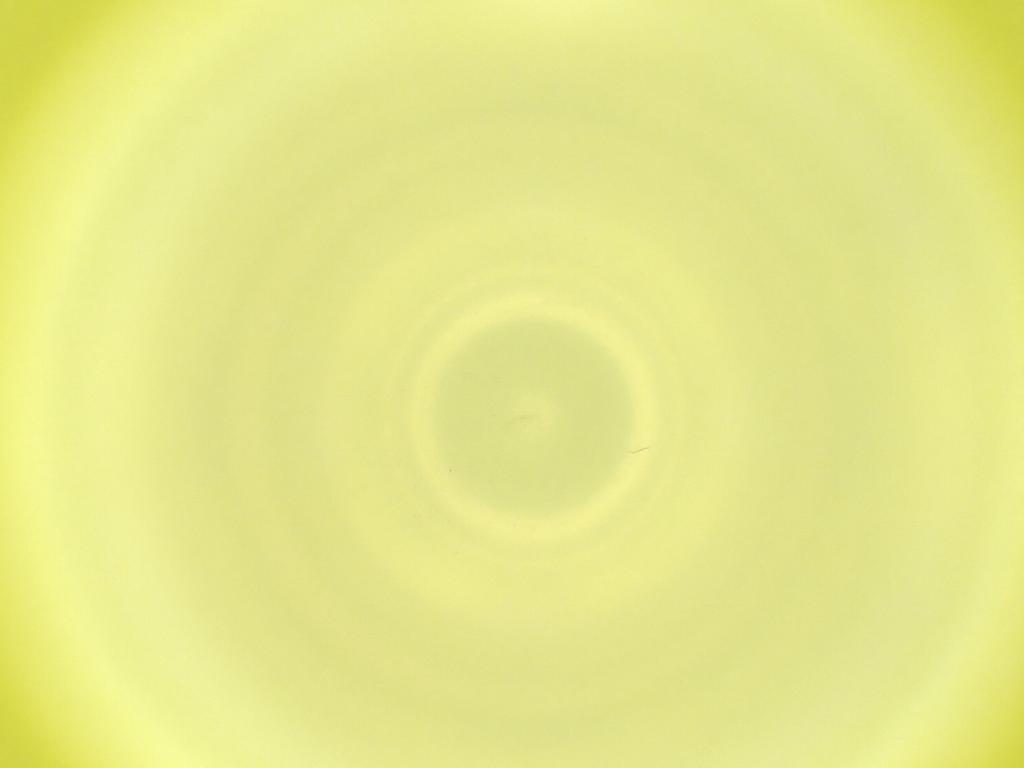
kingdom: Animalia
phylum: Arthropoda
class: Insecta
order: Diptera
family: Cecidomyiidae
